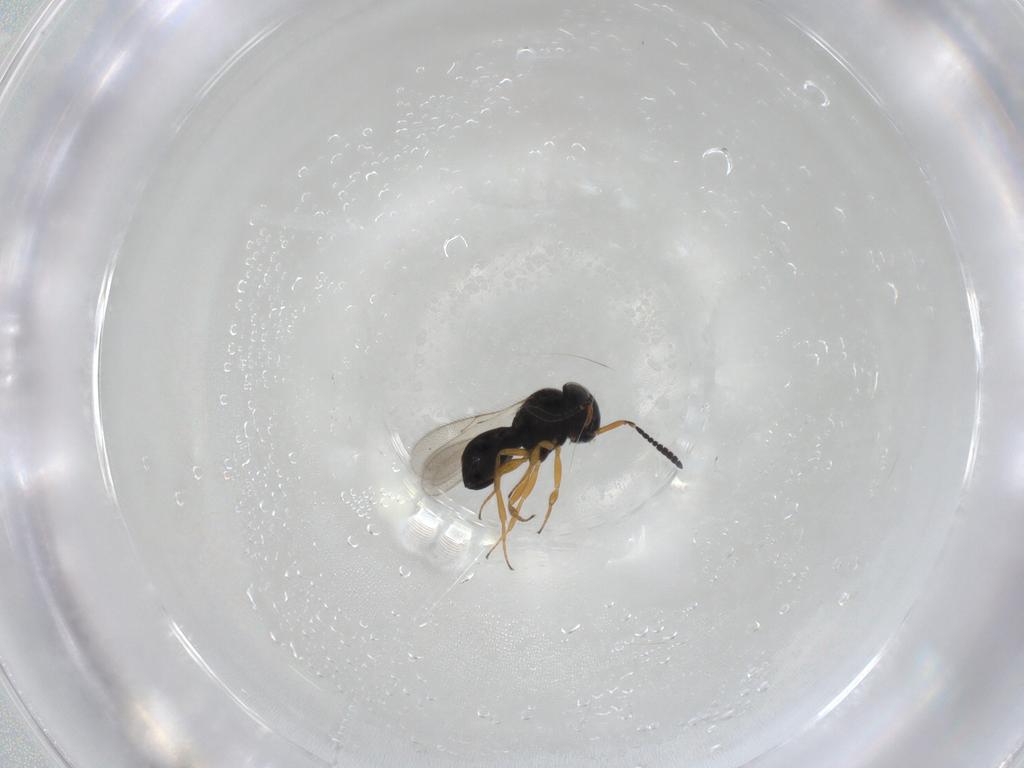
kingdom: Animalia
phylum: Arthropoda
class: Insecta
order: Hymenoptera
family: Scelionidae
